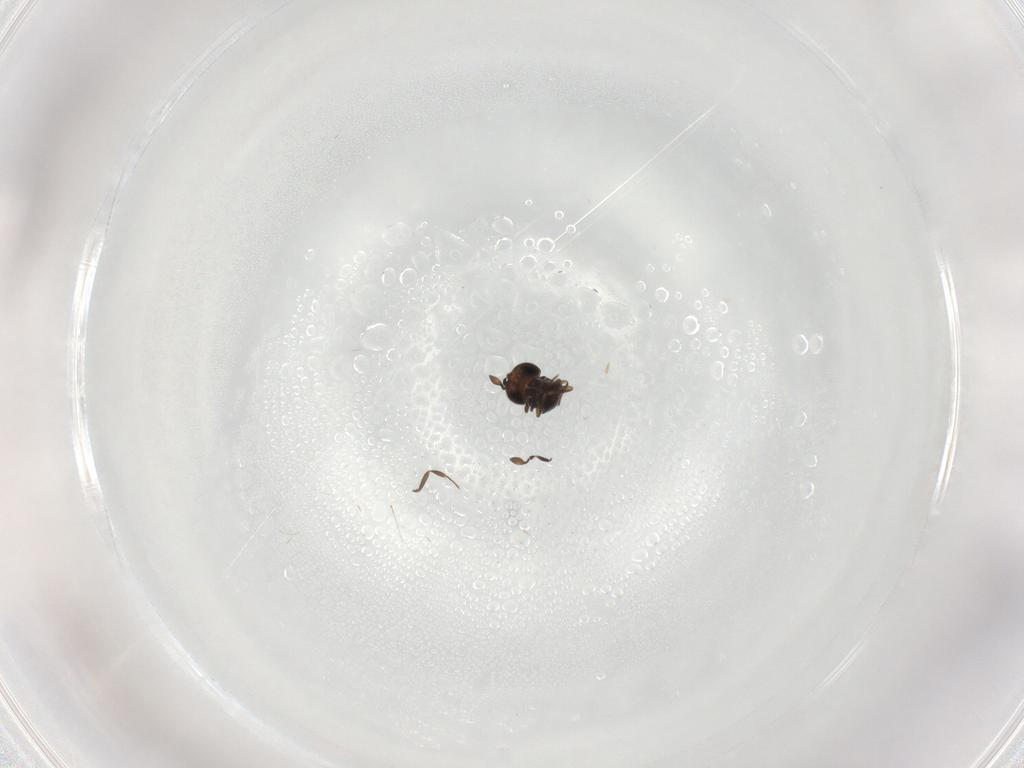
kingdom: Animalia
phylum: Arthropoda
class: Insecta
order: Hymenoptera
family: Scelionidae
